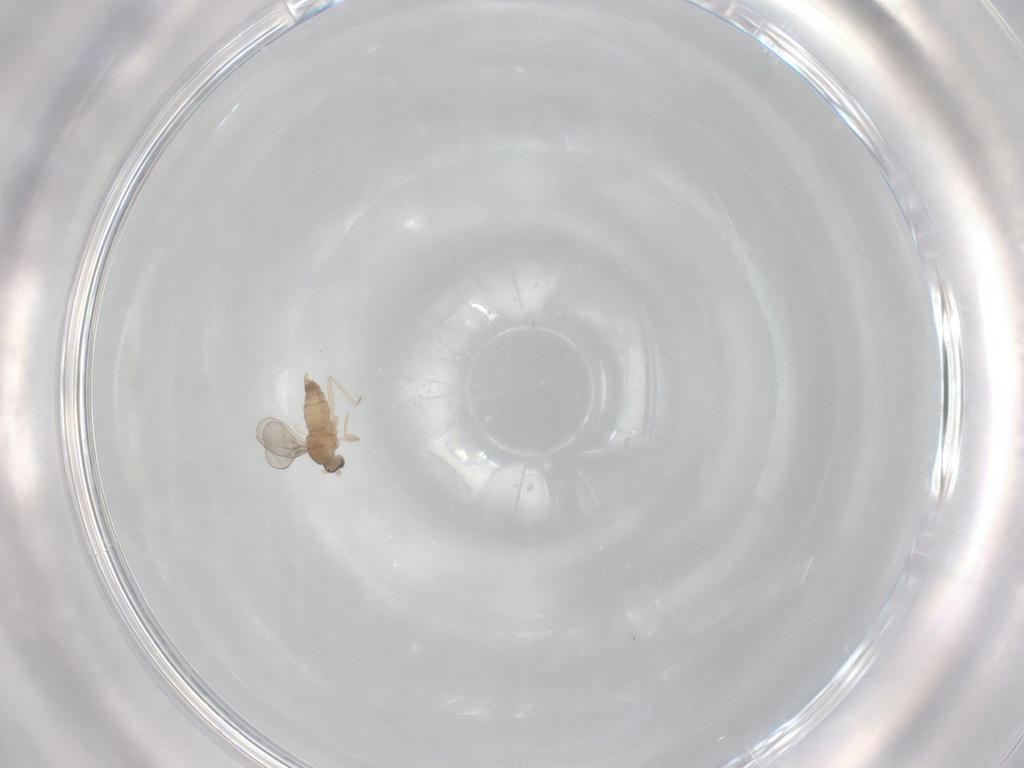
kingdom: Animalia
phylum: Arthropoda
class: Insecta
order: Diptera
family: Cecidomyiidae
